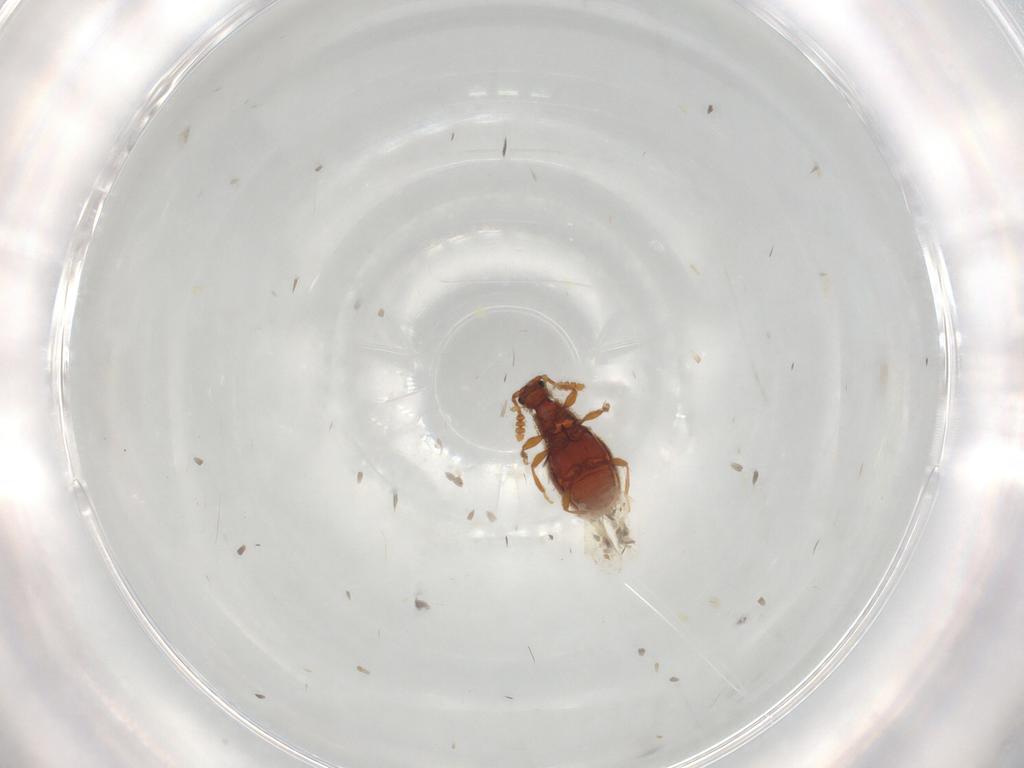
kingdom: Animalia
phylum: Arthropoda
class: Insecta
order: Coleoptera
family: Staphylinidae
